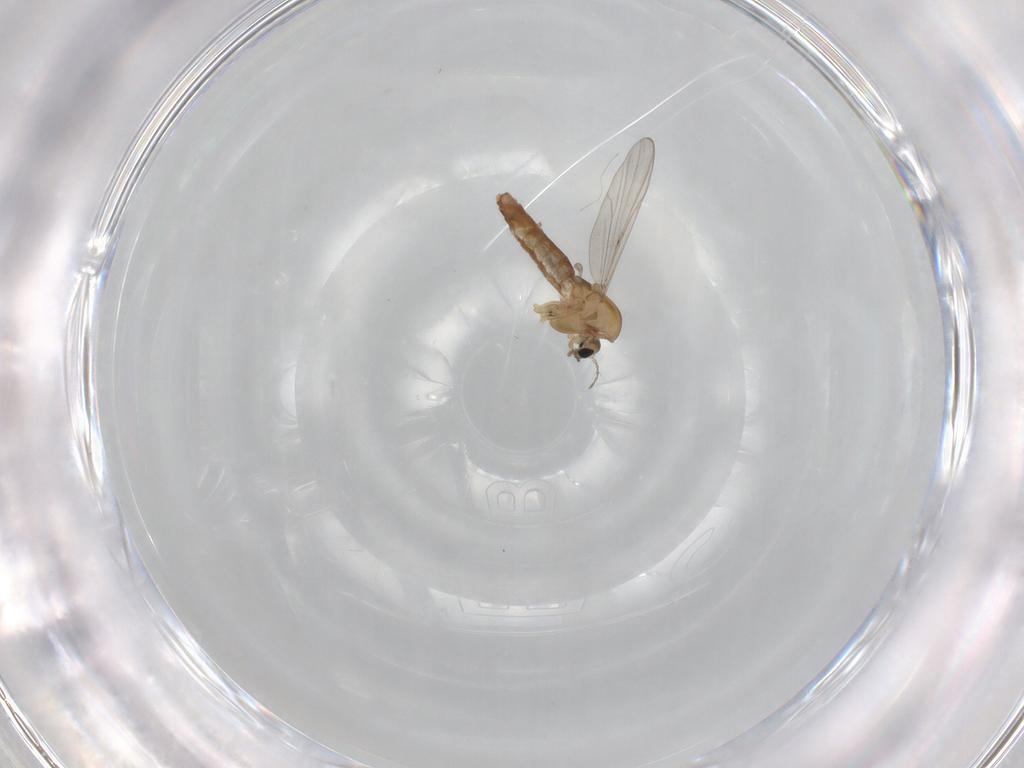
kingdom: Animalia
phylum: Arthropoda
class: Insecta
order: Diptera
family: Chironomidae
